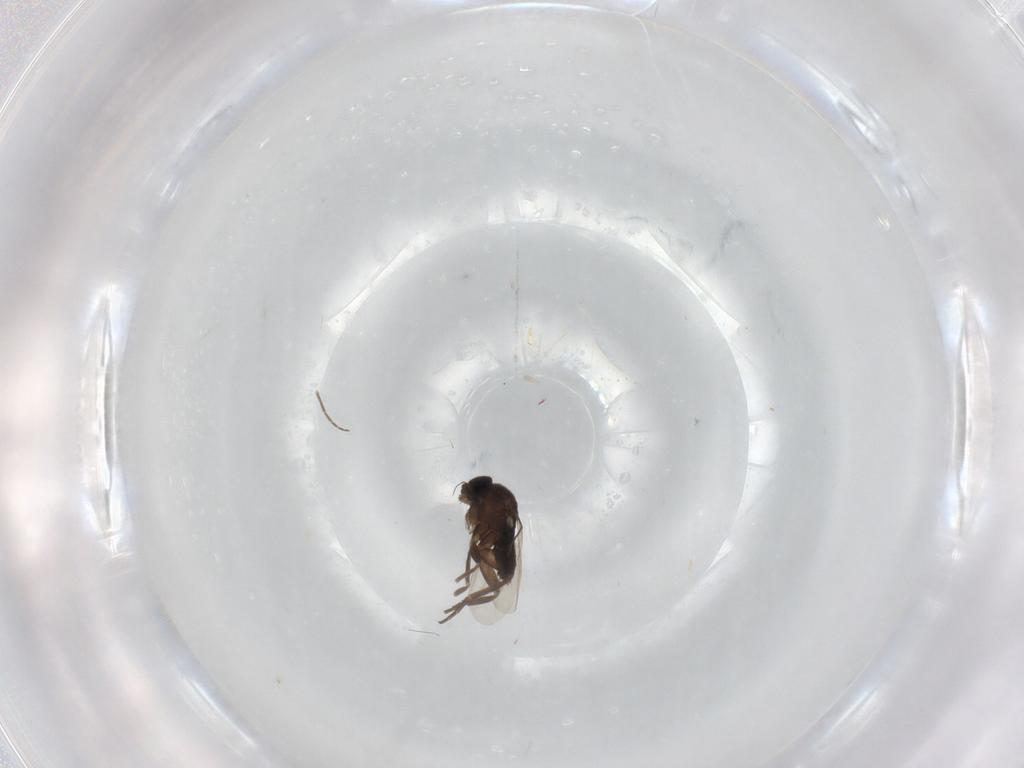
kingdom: Animalia
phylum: Arthropoda
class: Insecta
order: Diptera
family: Phoridae
